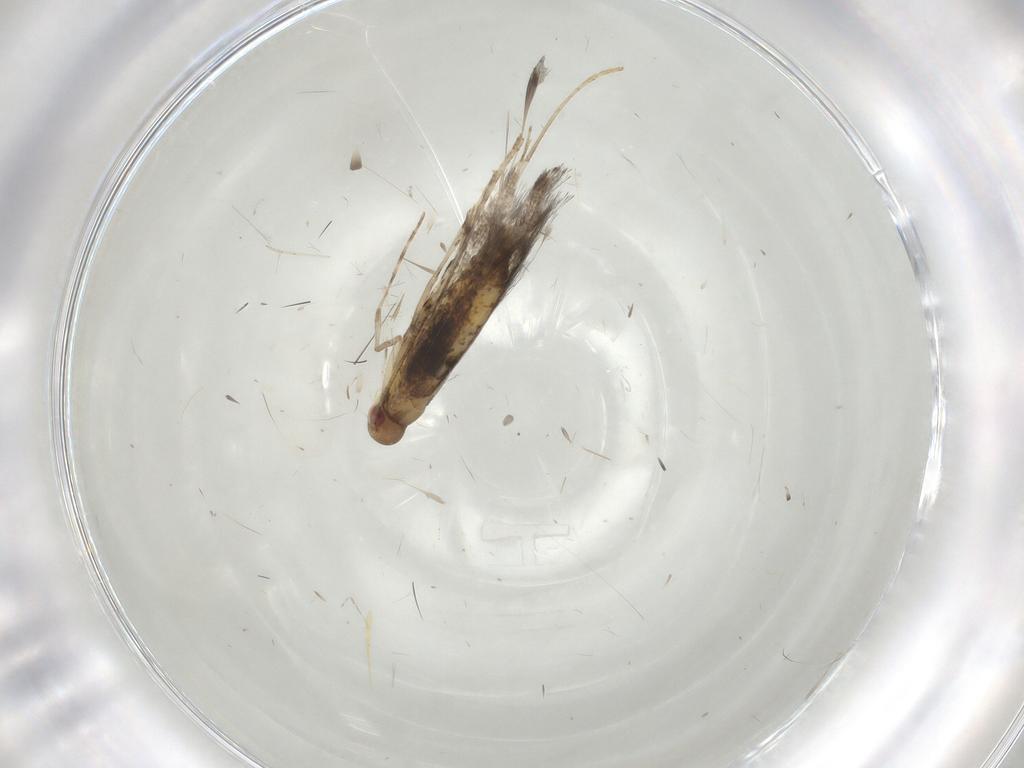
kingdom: Animalia
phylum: Arthropoda
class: Insecta
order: Lepidoptera
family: Gracillariidae
